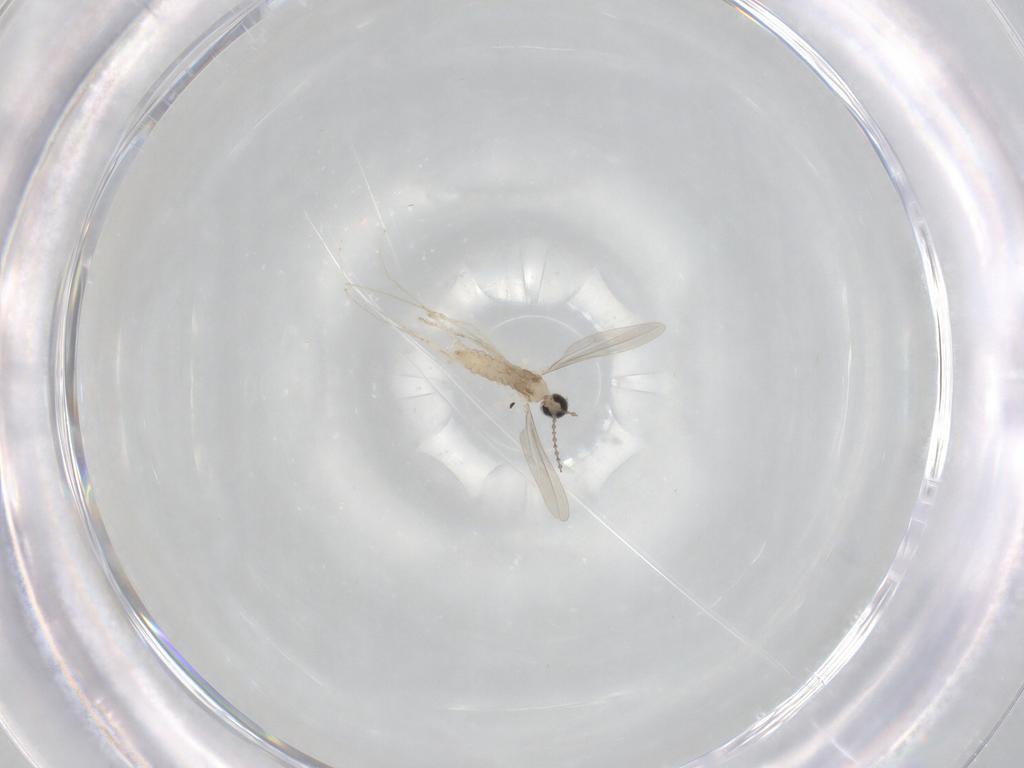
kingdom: Animalia
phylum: Arthropoda
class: Insecta
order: Diptera
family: Cecidomyiidae
